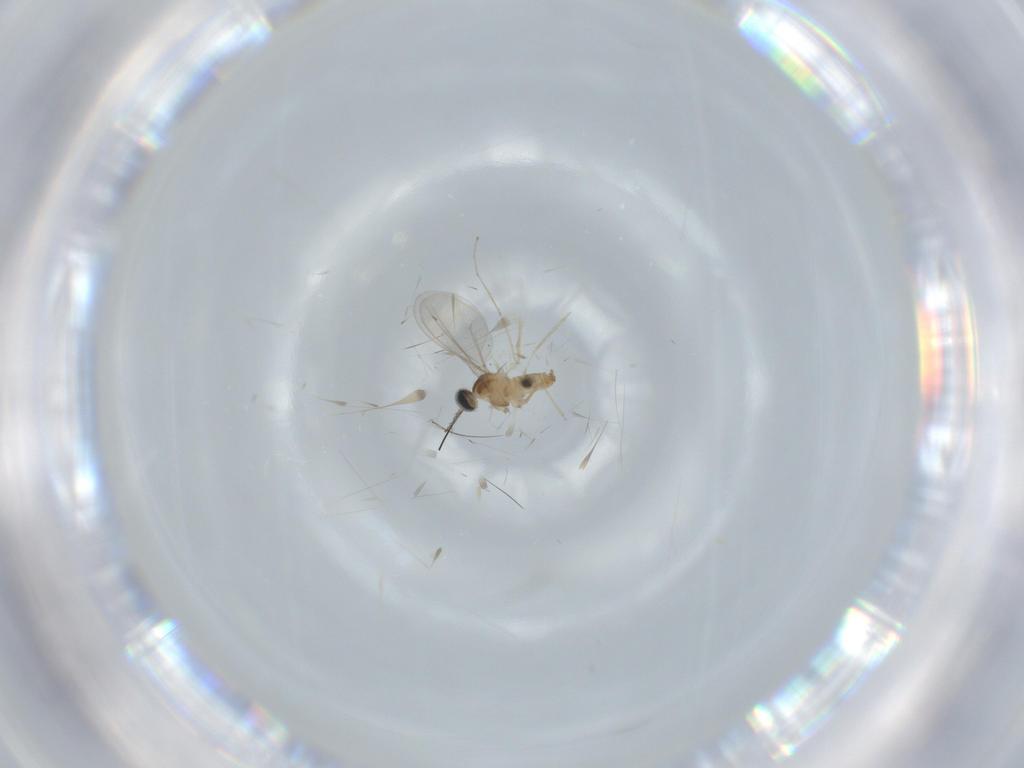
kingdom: Animalia
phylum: Arthropoda
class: Insecta
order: Diptera
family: Cecidomyiidae
